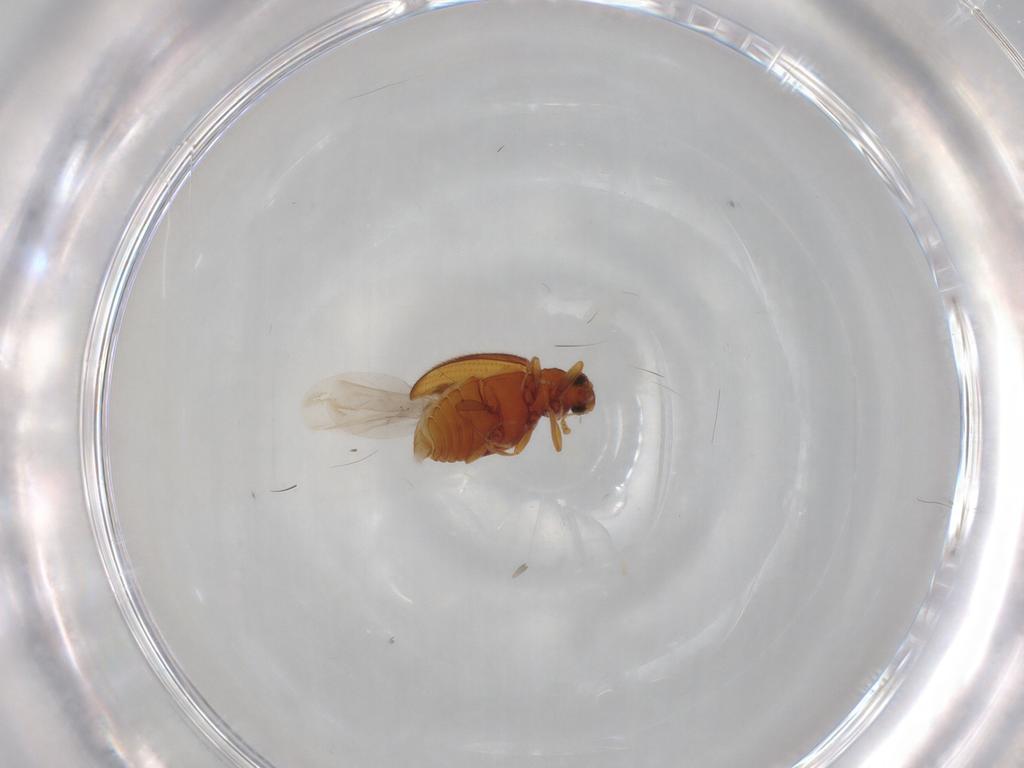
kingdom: Animalia
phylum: Arthropoda
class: Insecta
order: Coleoptera
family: Latridiidae
